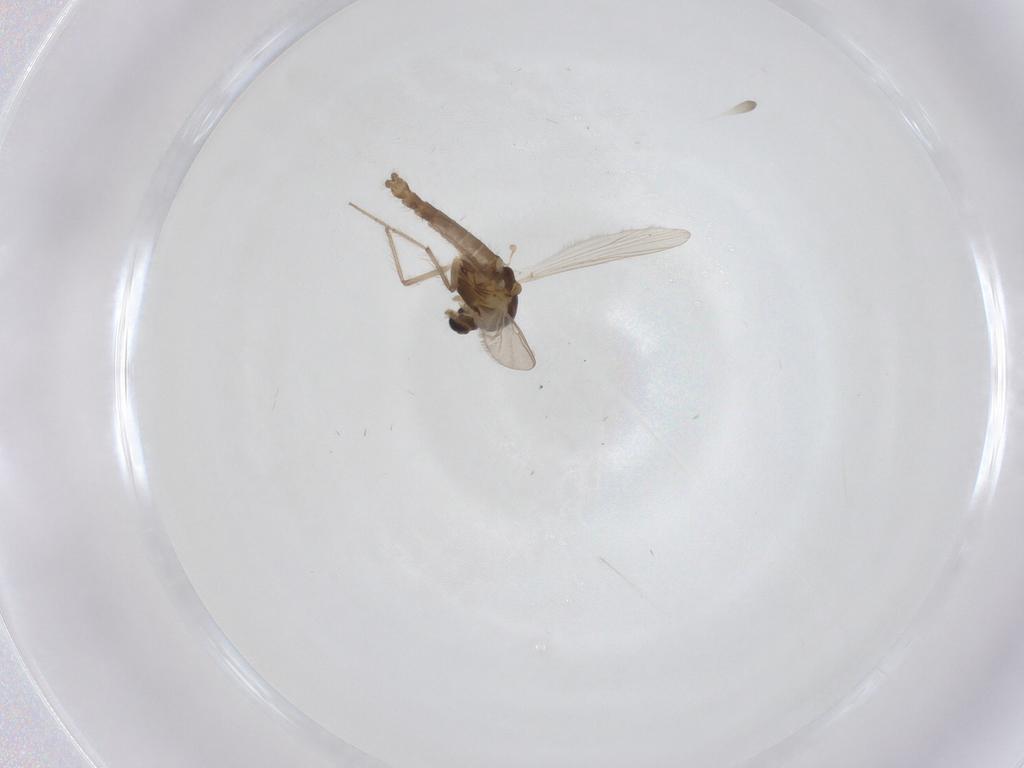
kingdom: Animalia
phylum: Arthropoda
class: Insecta
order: Diptera
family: Chironomidae
